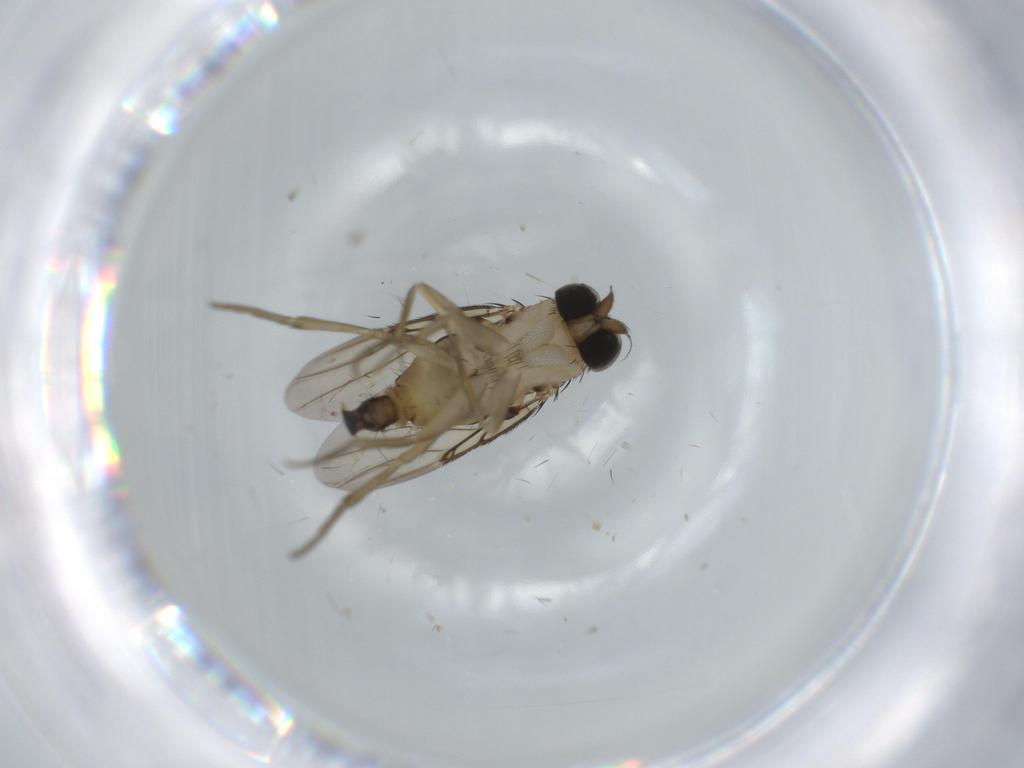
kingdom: Animalia
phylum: Arthropoda
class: Insecta
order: Diptera
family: Phoridae
